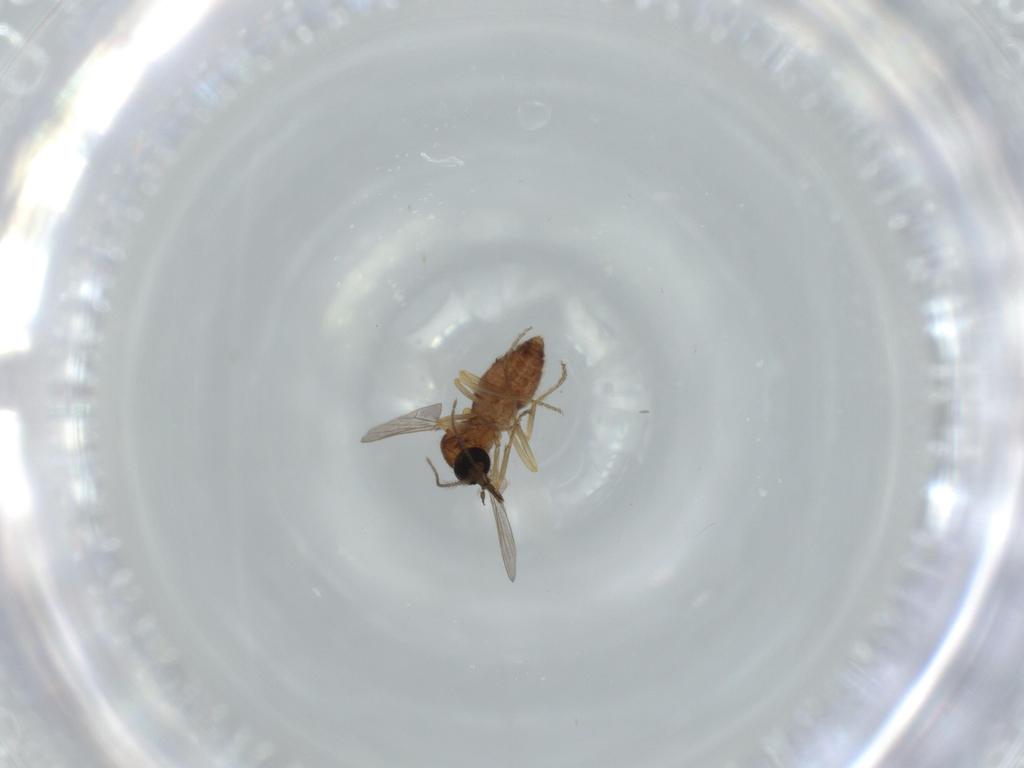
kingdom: Animalia
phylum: Arthropoda
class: Insecta
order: Diptera
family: Ceratopogonidae
